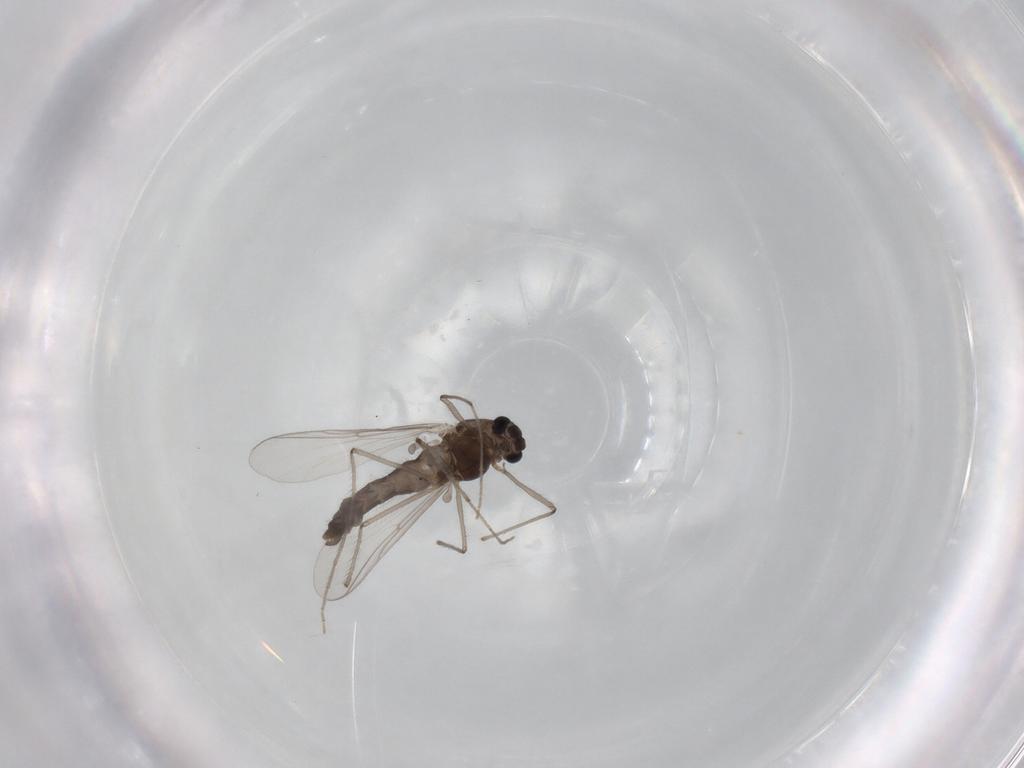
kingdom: Animalia
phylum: Arthropoda
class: Insecta
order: Diptera
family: Chironomidae
